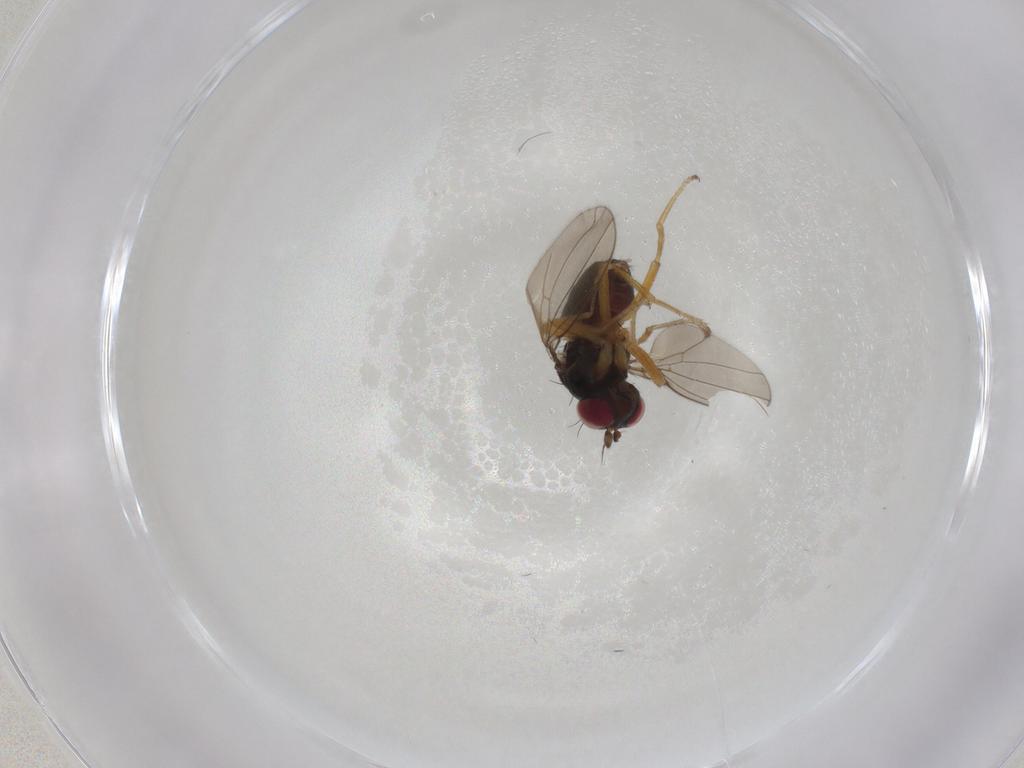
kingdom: Animalia
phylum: Arthropoda
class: Insecta
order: Diptera
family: Ephydridae
